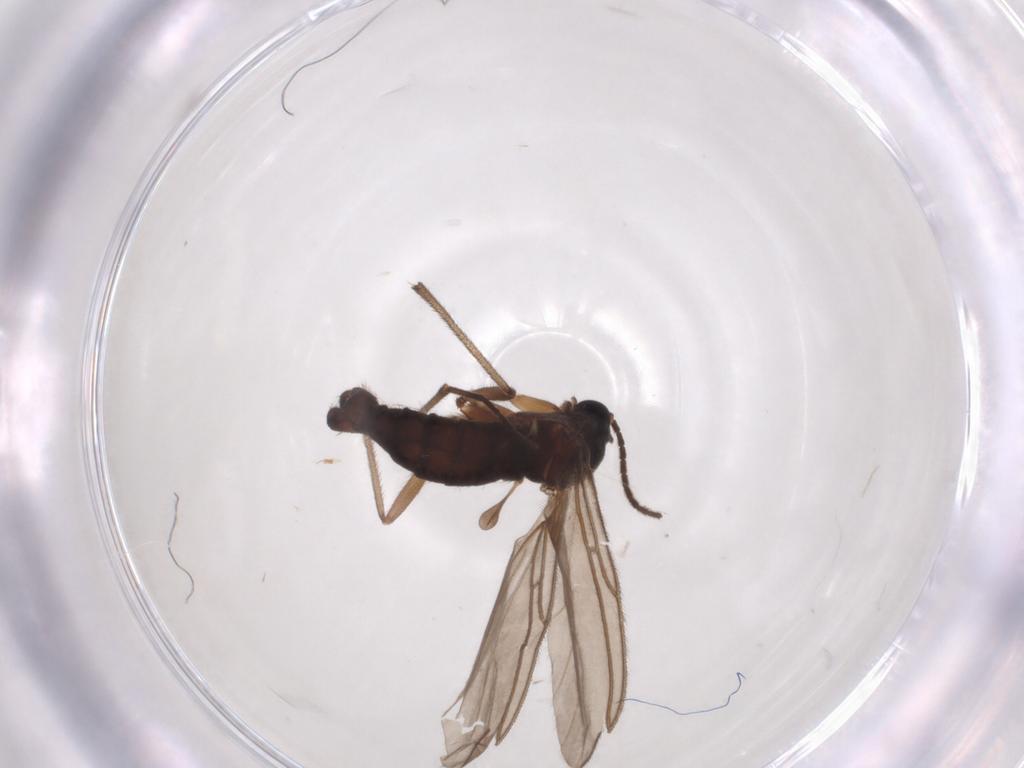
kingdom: Animalia
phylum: Arthropoda
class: Insecta
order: Diptera
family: Sciaridae
